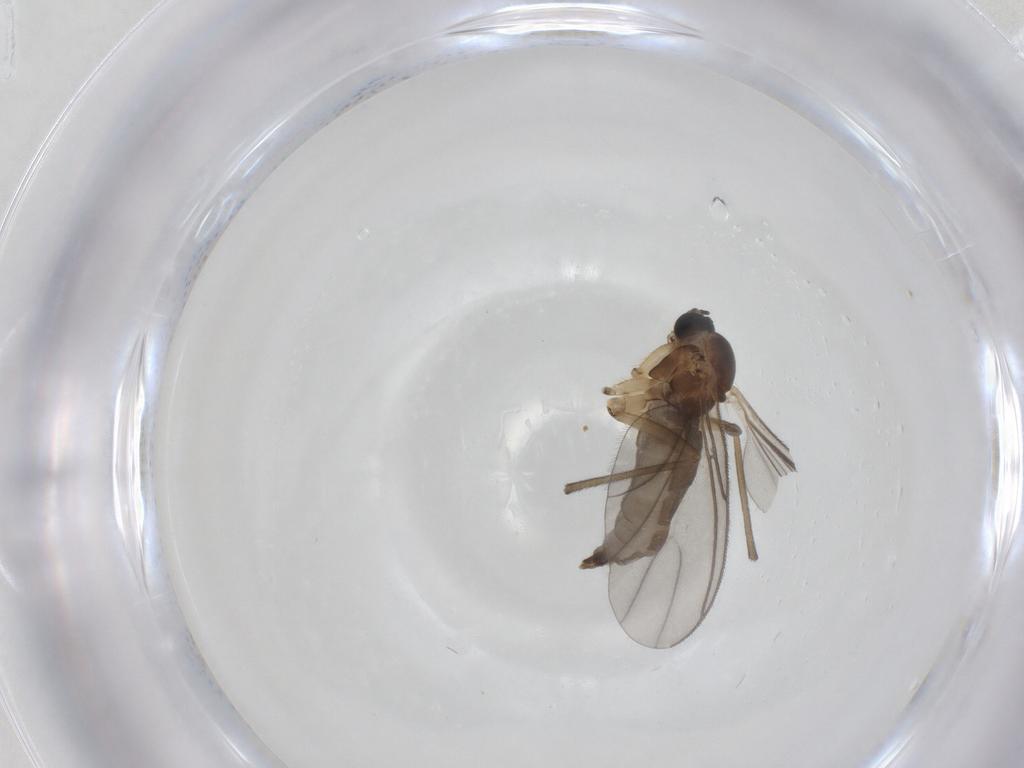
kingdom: Animalia
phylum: Arthropoda
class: Insecta
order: Diptera
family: Sciaridae
